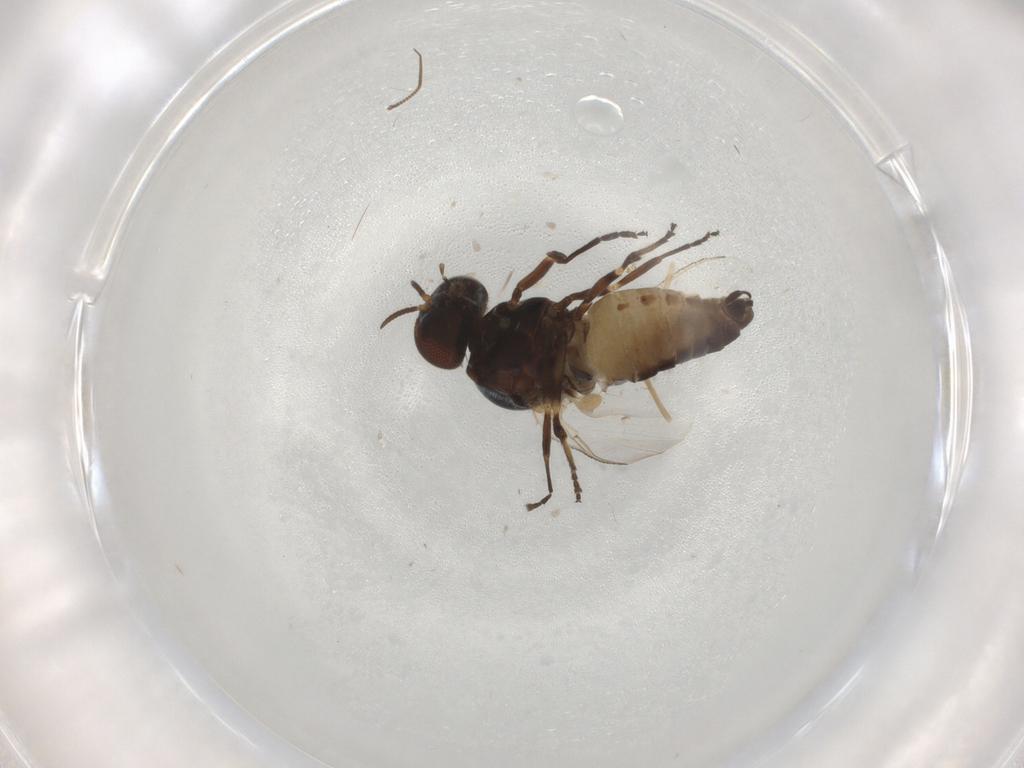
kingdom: Animalia
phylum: Arthropoda
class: Insecta
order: Diptera
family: Simuliidae
